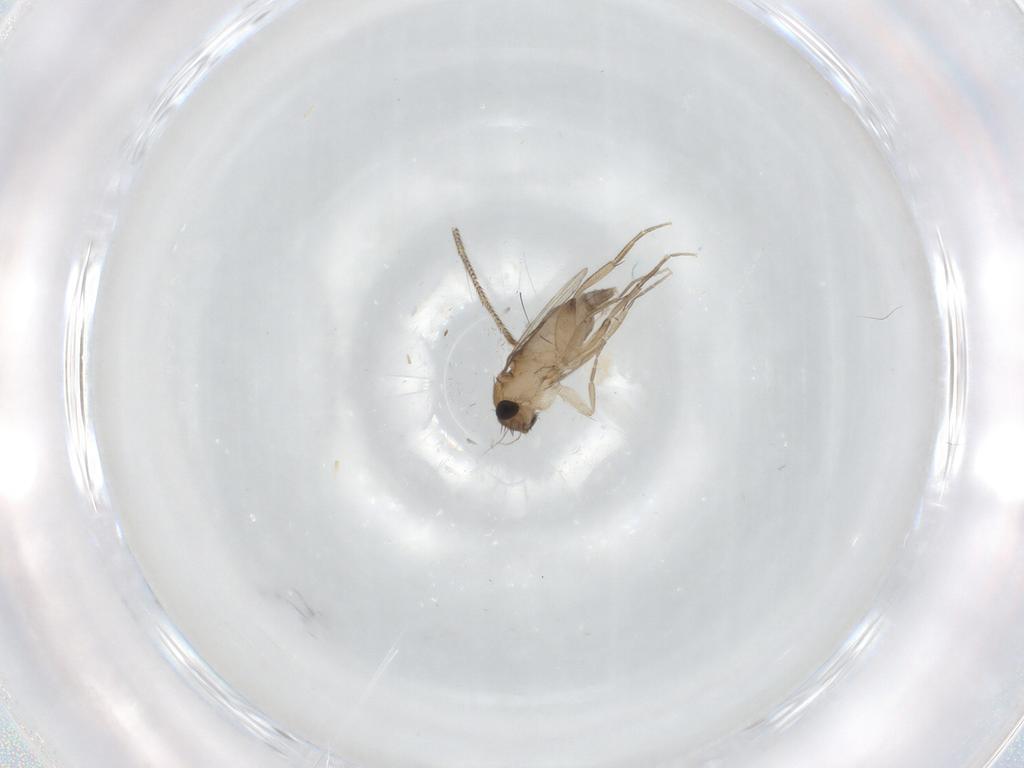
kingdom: Animalia
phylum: Arthropoda
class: Insecta
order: Diptera
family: Phoridae
